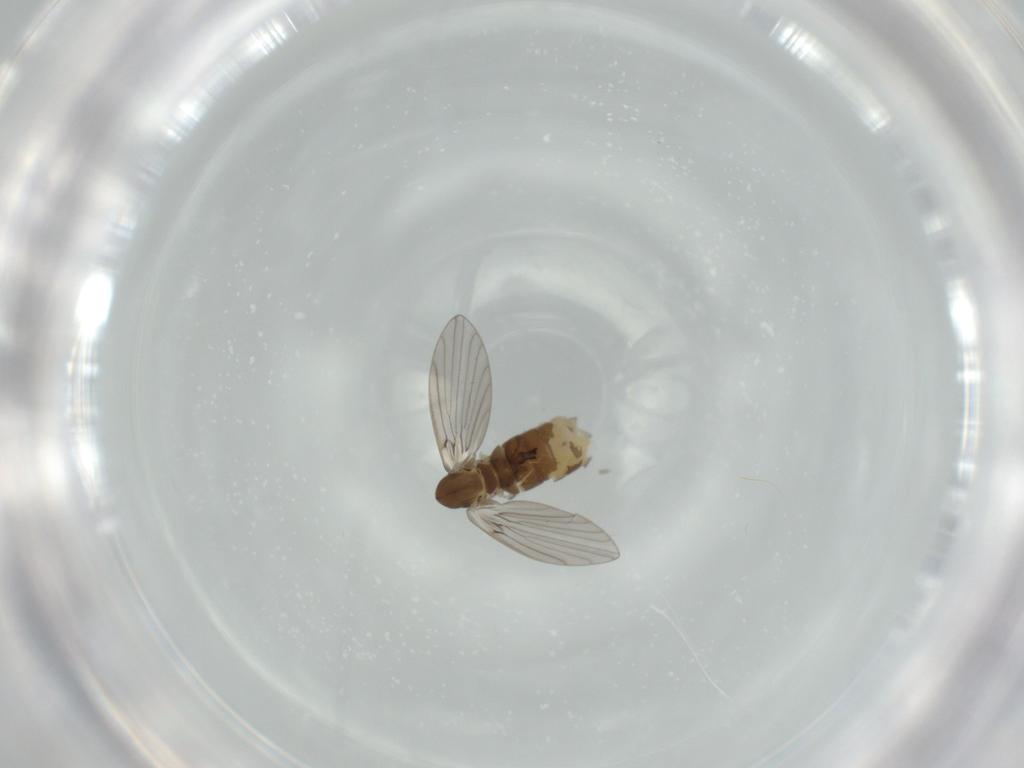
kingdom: Animalia
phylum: Arthropoda
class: Insecta
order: Diptera
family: Psychodidae
